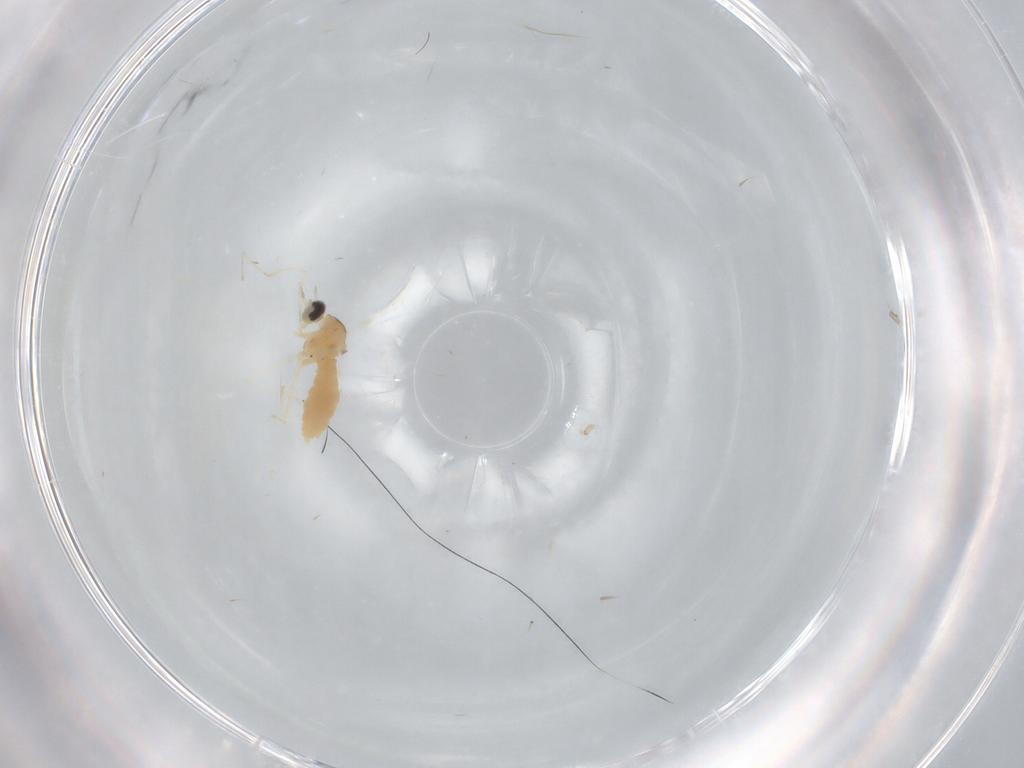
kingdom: Animalia
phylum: Arthropoda
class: Insecta
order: Diptera
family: Cecidomyiidae
